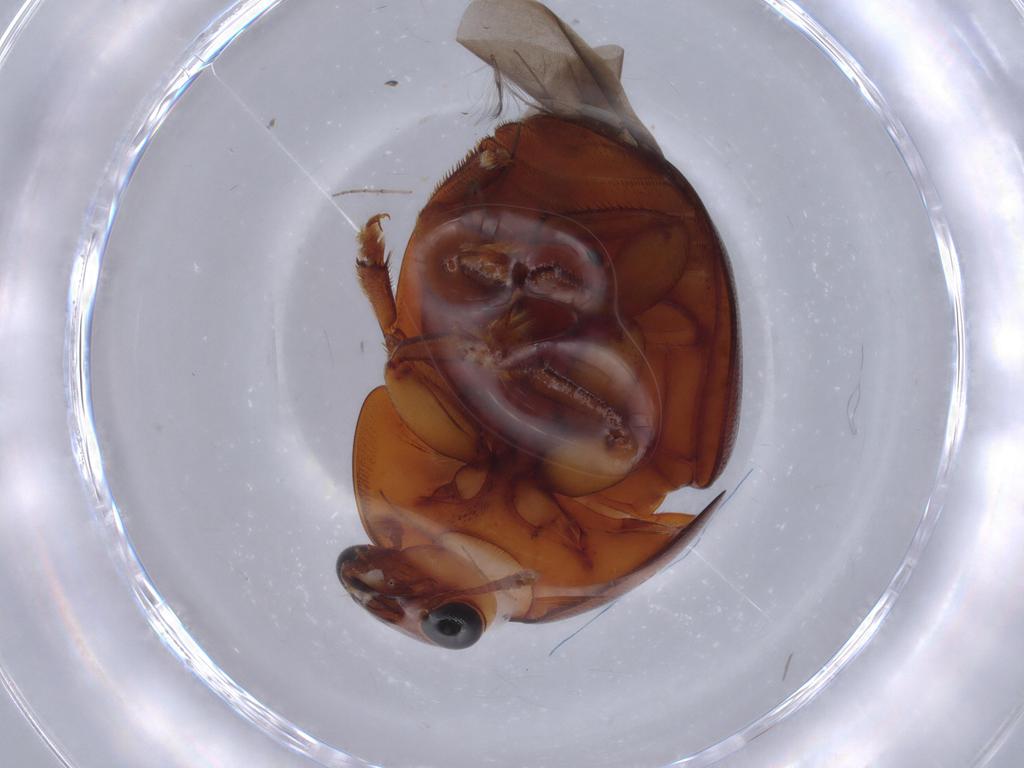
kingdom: Animalia
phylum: Arthropoda
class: Insecta
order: Coleoptera
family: Nitidulidae
